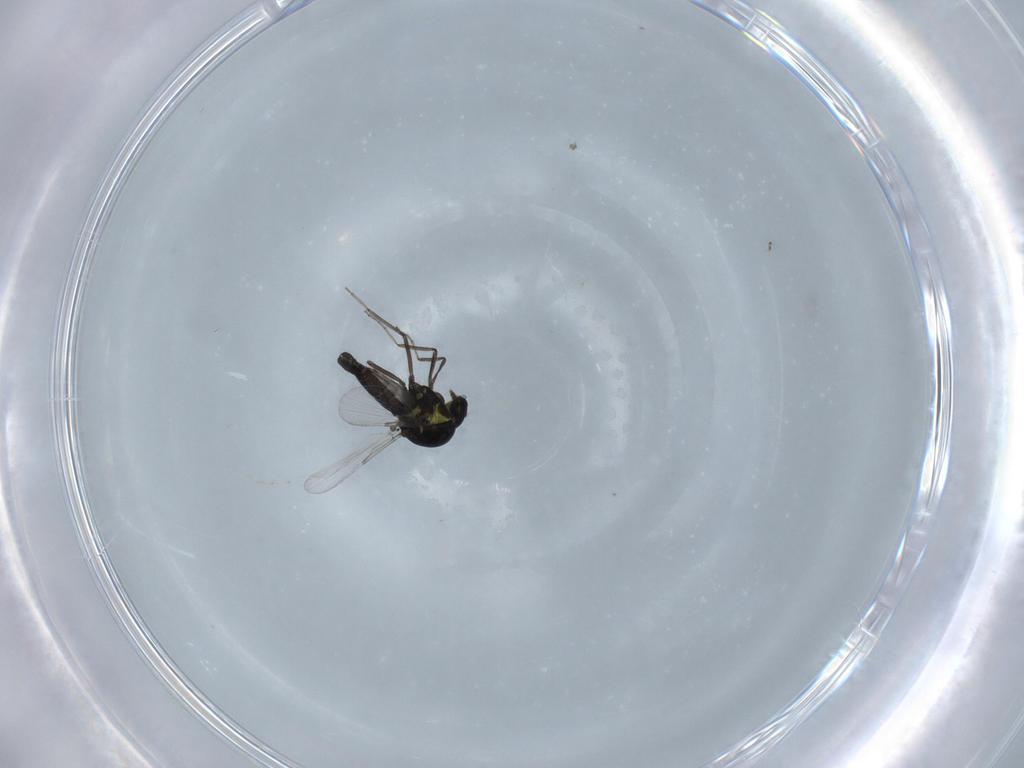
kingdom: Animalia
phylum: Arthropoda
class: Insecta
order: Diptera
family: Ceratopogonidae
